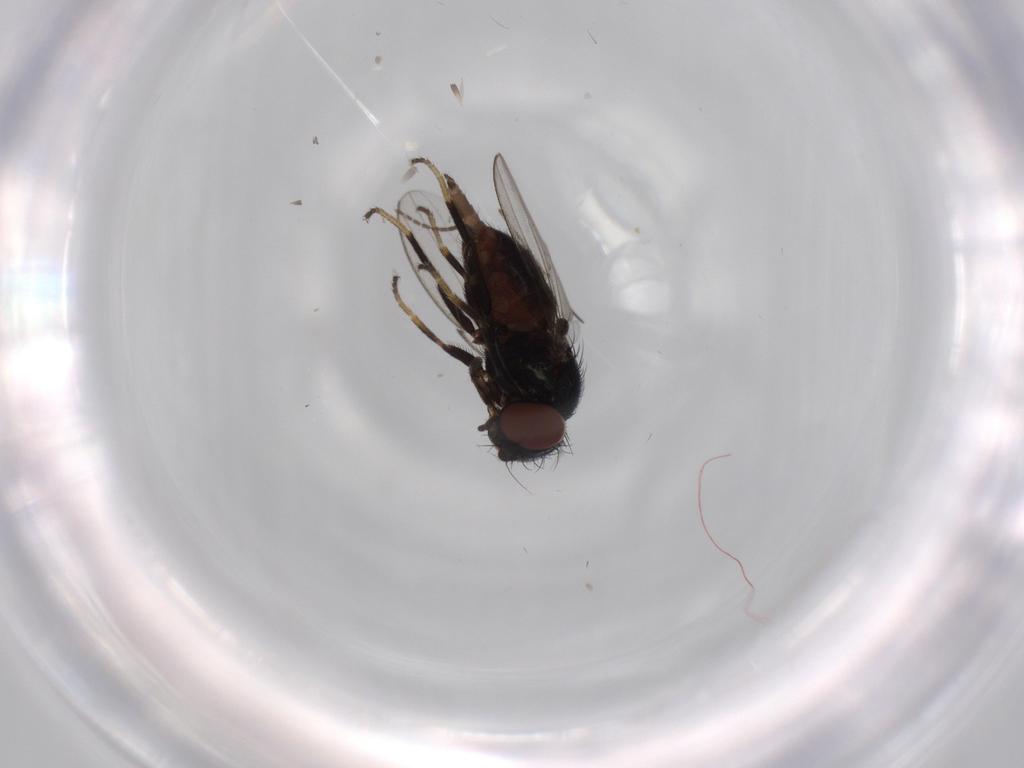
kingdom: Animalia
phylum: Arthropoda
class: Insecta
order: Diptera
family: Milichiidae
